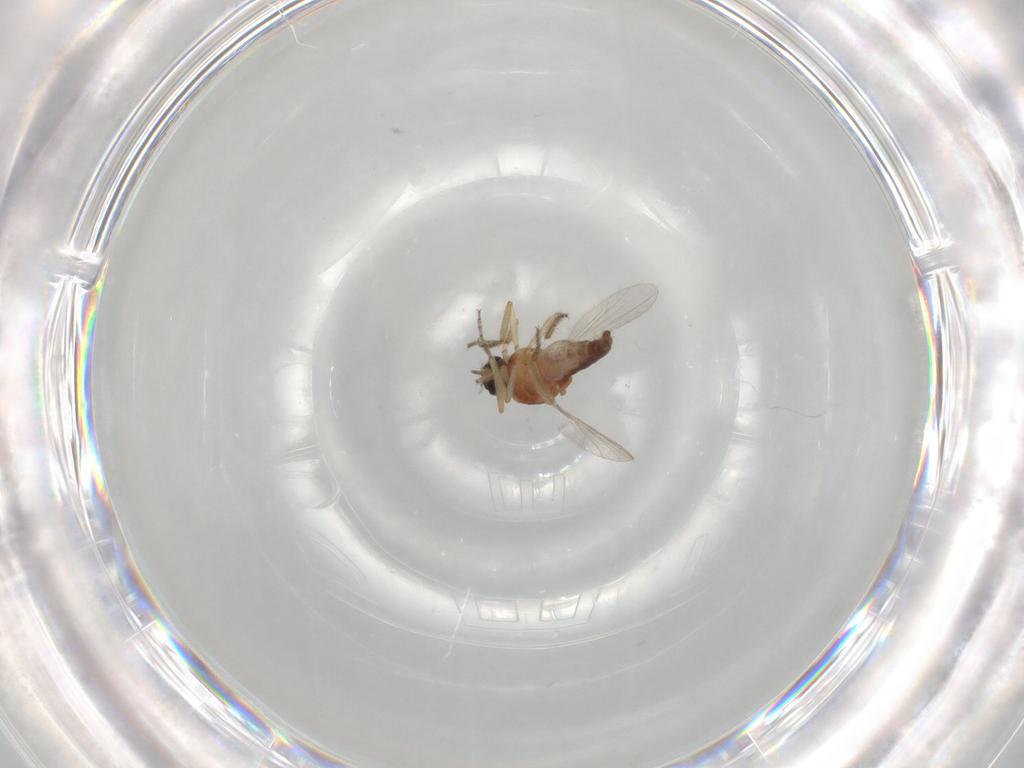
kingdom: Animalia
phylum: Arthropoda
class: Insecta
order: Diptera
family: Ceratopogonidae
